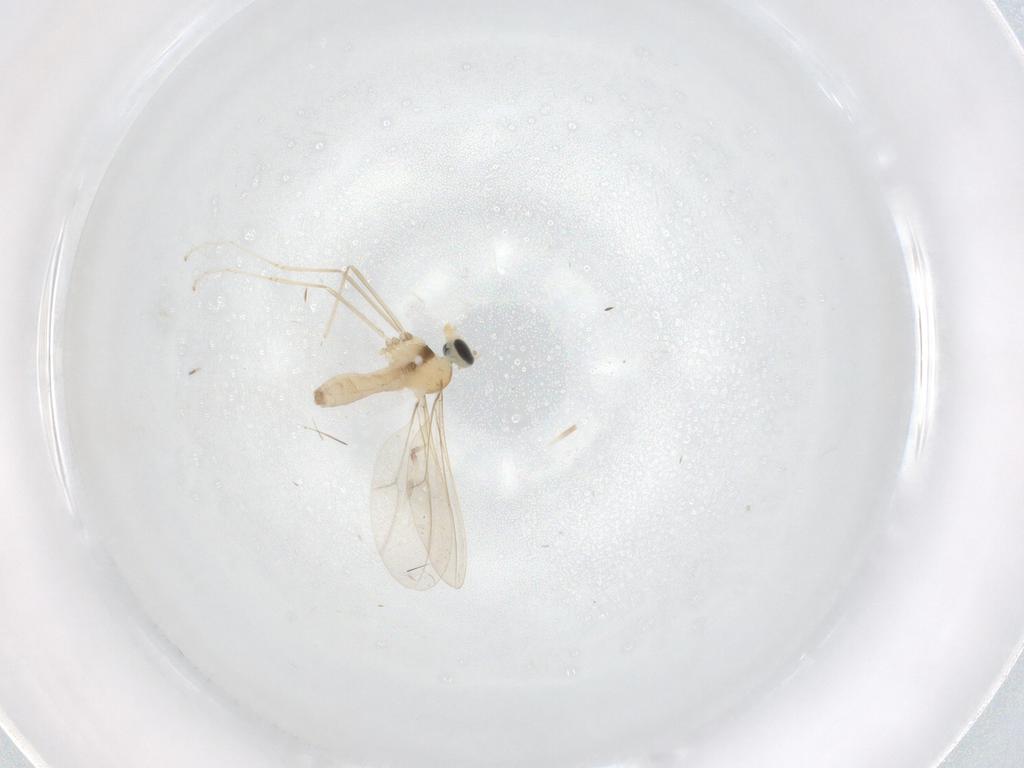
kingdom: Animalia
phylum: Arthropoda
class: Insecta
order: Diptera
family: Cecidomyiidae
